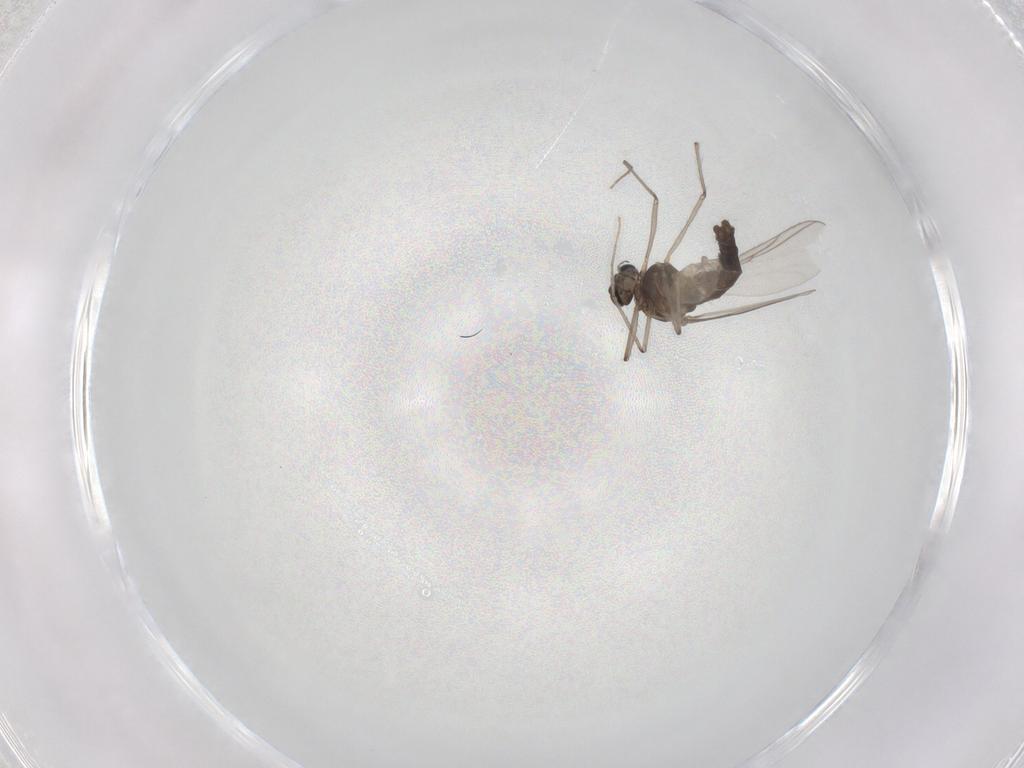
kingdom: Animalia
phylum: Arthropoda
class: Insecta
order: Diptera
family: Chironomidae
